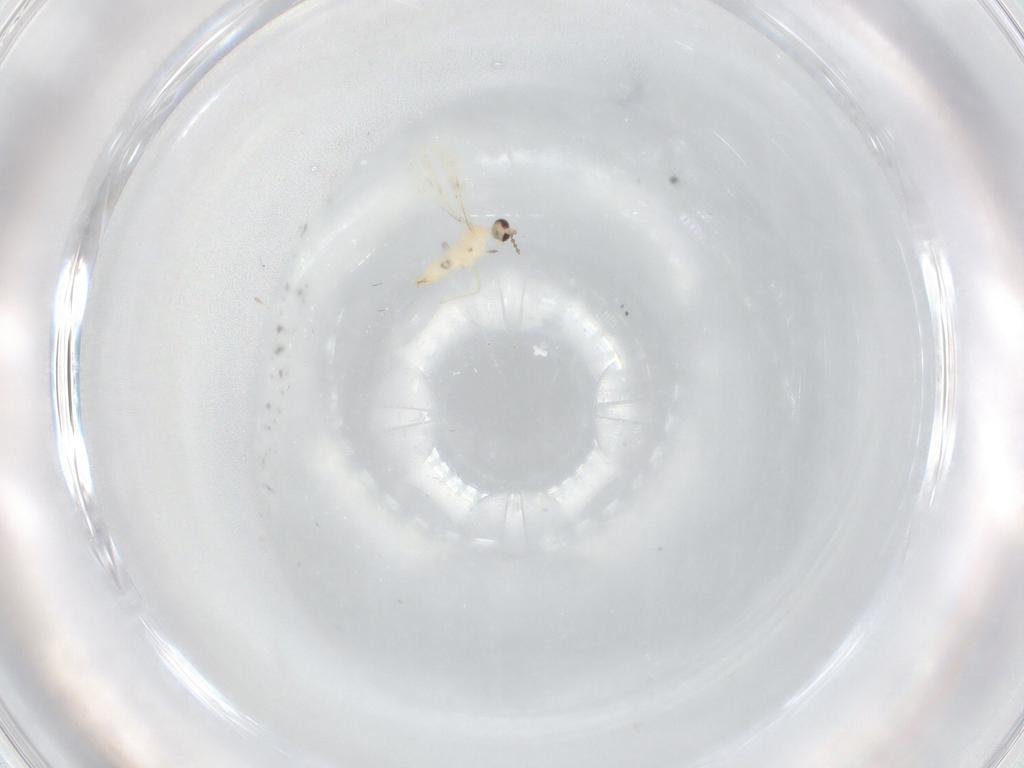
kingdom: Animalia
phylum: Arthropoda
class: Insecta
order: Diptera
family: Cecidomyiidae
